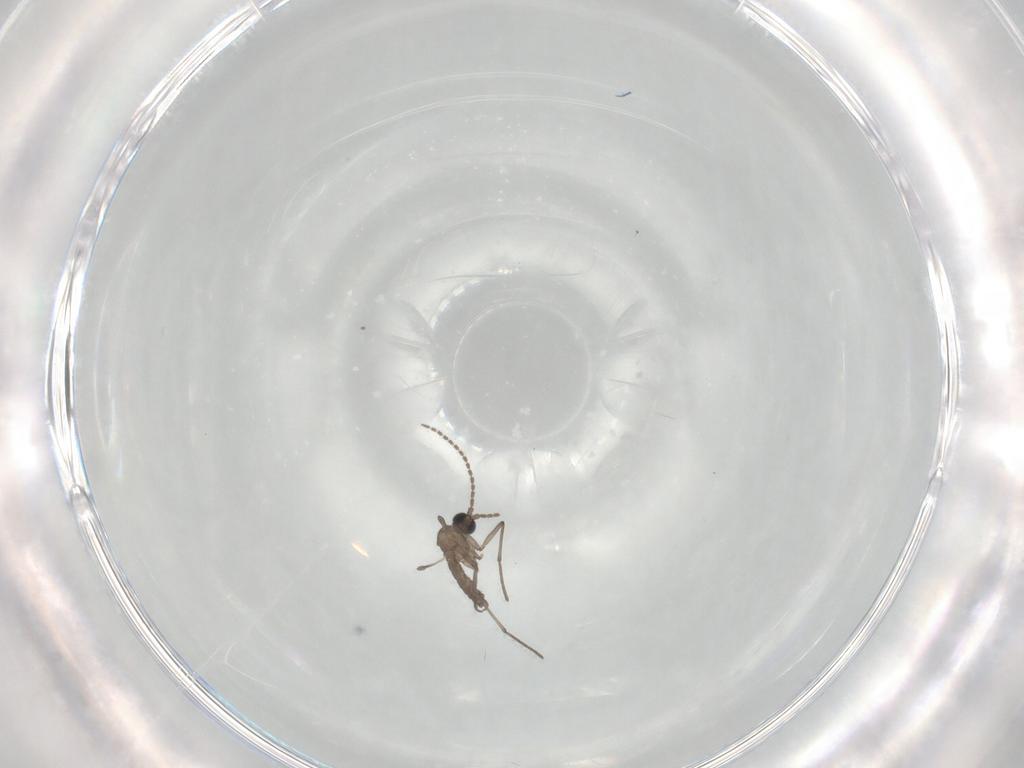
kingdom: Animalia
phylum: Arthropoda
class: Insecta
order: Diptera
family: Sciaridae
